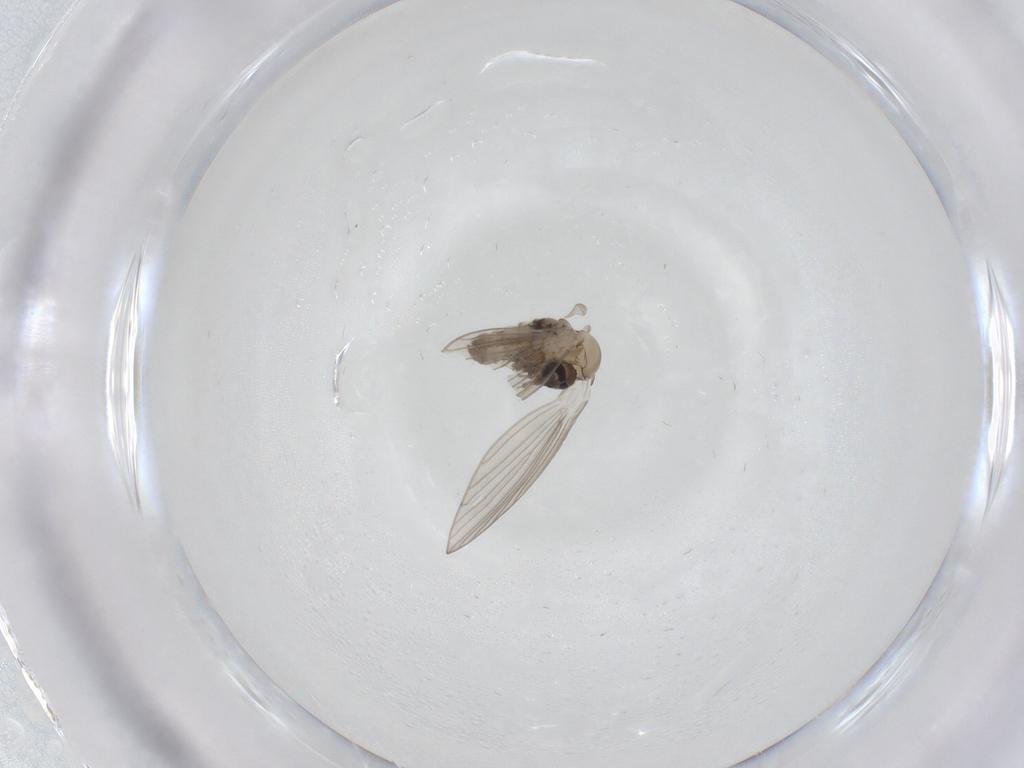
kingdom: Animalia
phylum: Arthropoda
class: Insecta
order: Diptera
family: Psychodidae
